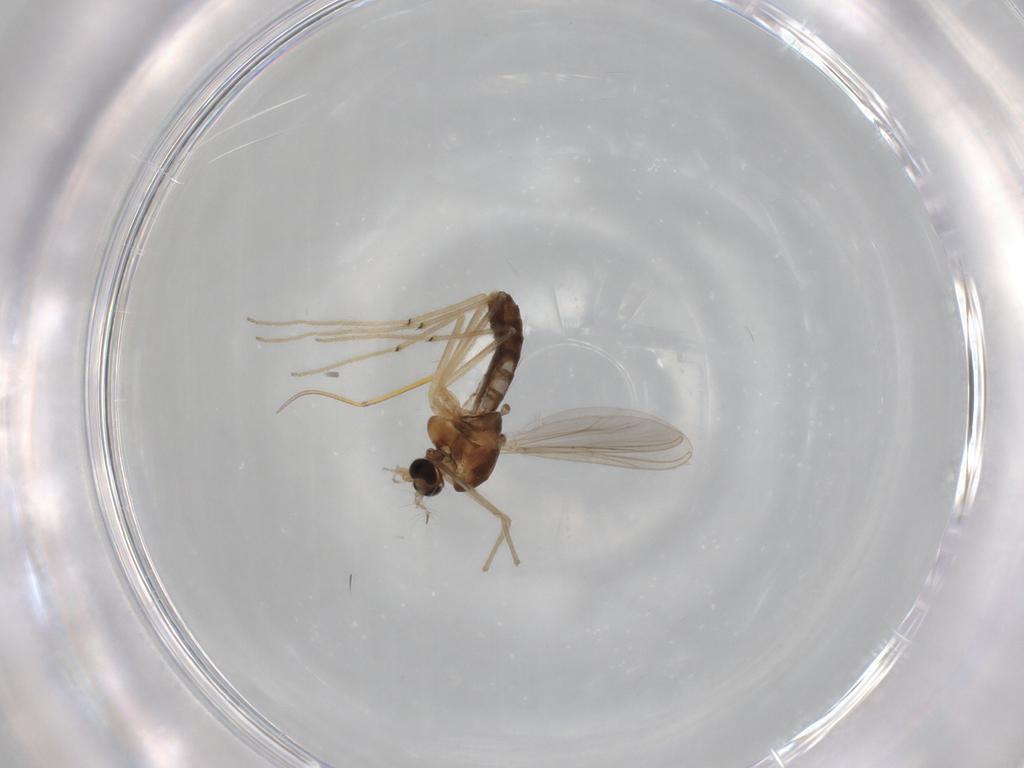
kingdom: Animalia
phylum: Arthropoda
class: Insecta
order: Diptera
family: Chironomidae
